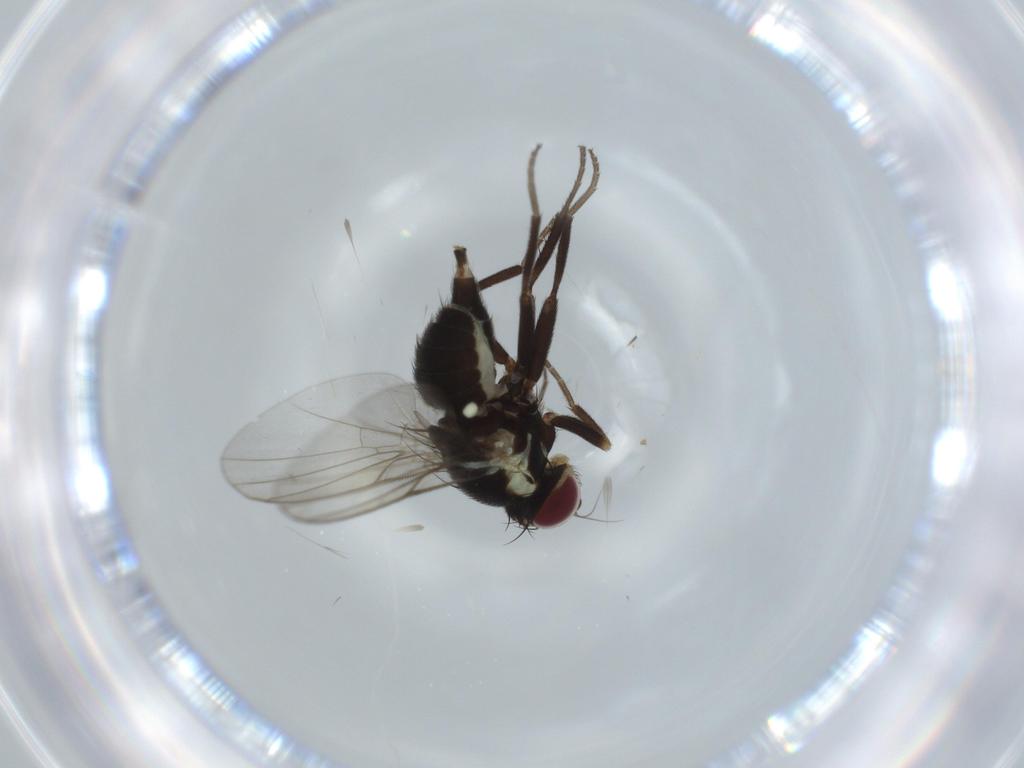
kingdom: Animalia
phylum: Arthropoda
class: Insecta
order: Diptera
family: Agromyzidae
